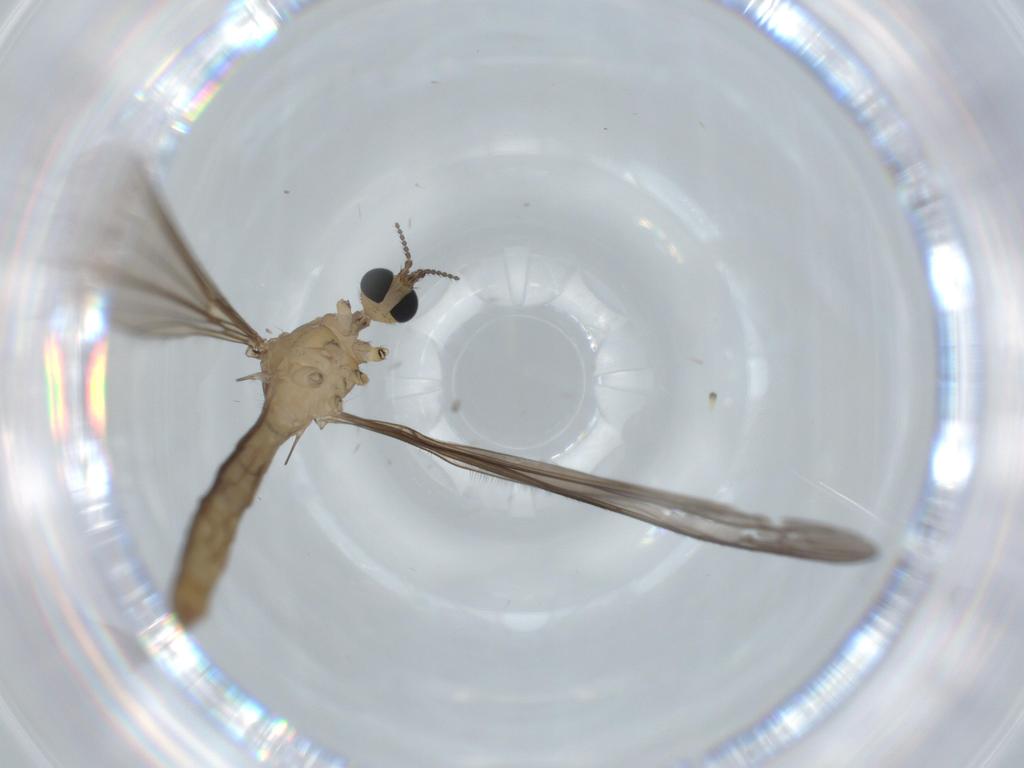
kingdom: Animalia
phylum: Arthropoda
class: Insecta
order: Diptera
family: Limoniidae
